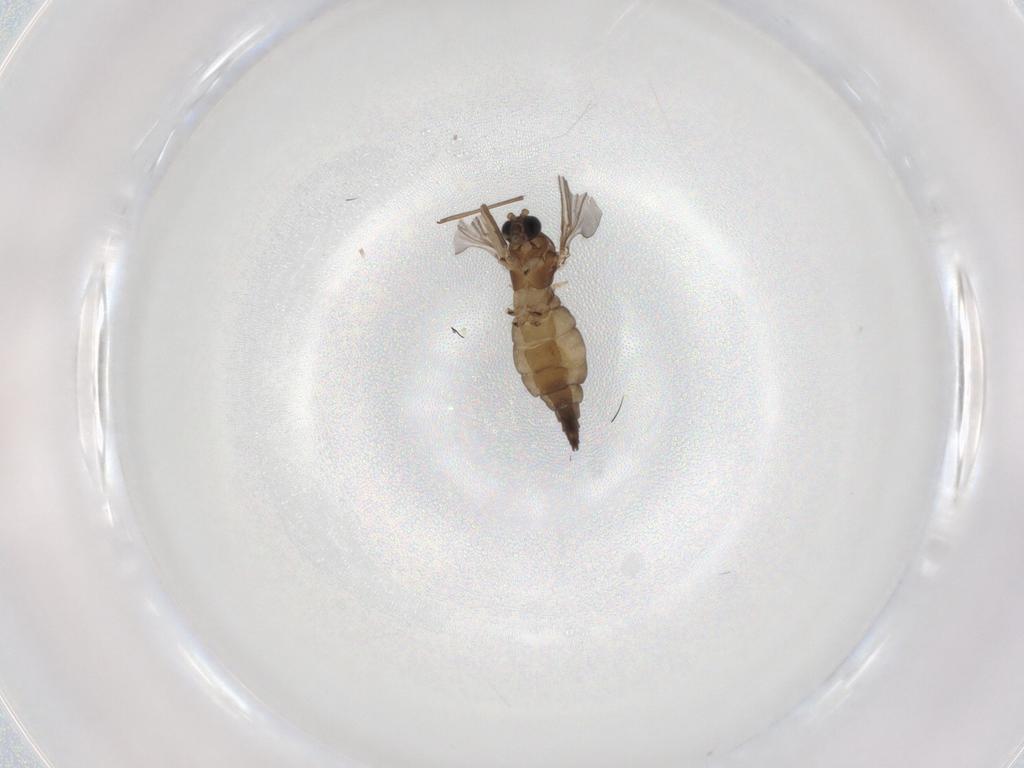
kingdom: Animalia
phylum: Arthropoda
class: Insecta
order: Diptera
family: Sciaridae
